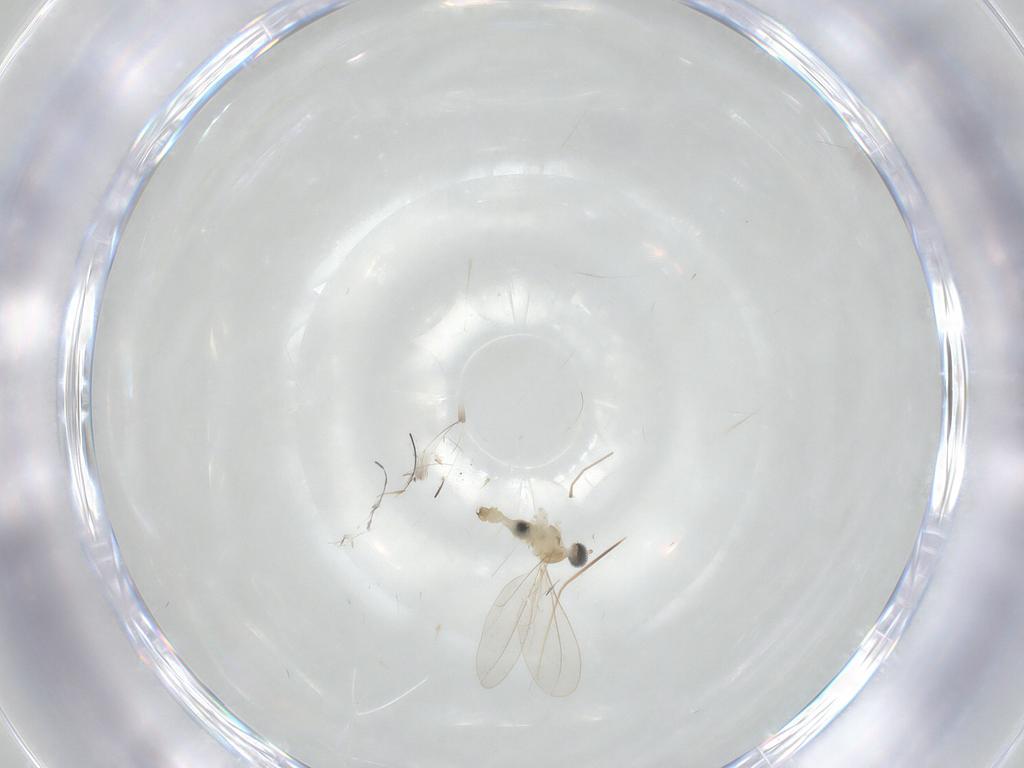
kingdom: Animalia
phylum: Arthropoda
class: Insecta
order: Diptera
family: Cecidomyiidae
